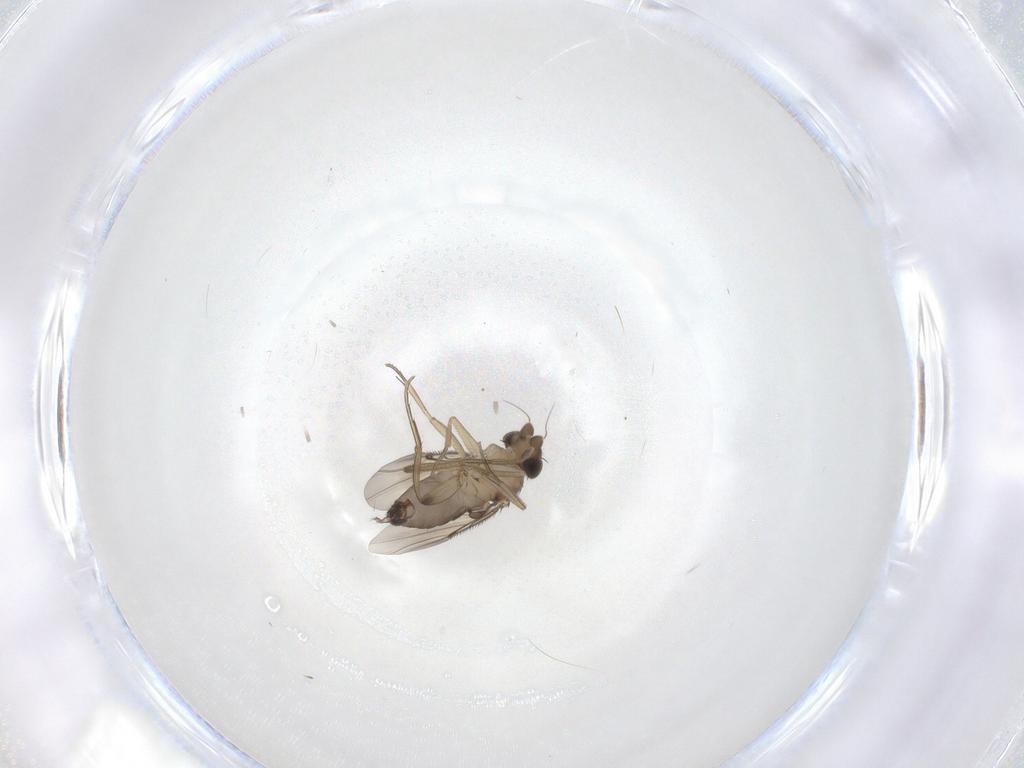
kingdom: Animalia
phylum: Arthropoda
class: Insecta
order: Diptera
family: Phoridae
